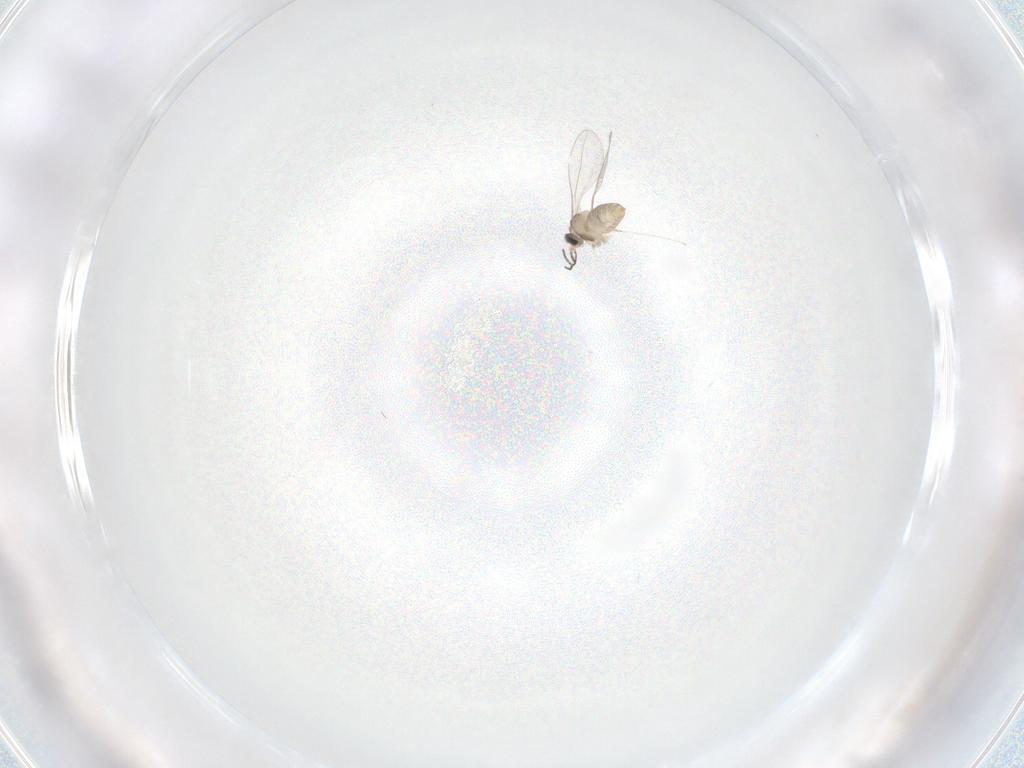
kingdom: Animalia
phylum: Arthropoda
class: Insecta
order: Diptera
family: Cecidomyiidae
